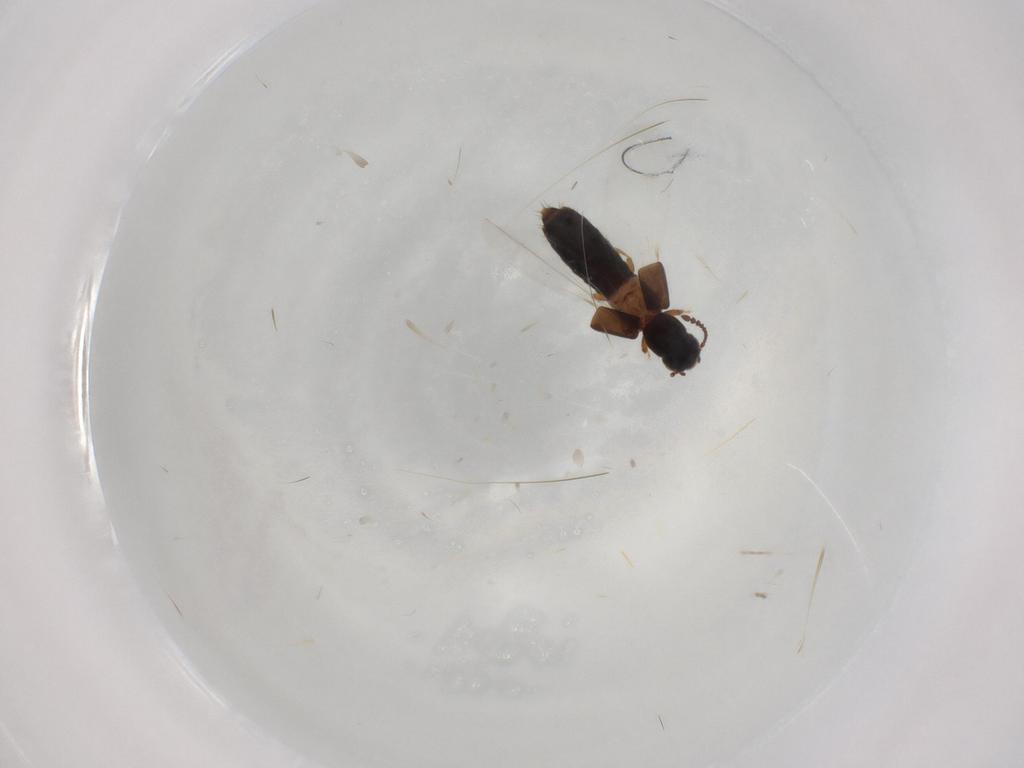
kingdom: Animalia
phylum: Arthropoda
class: Insecta
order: Coleoptera
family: Staphylinidae
